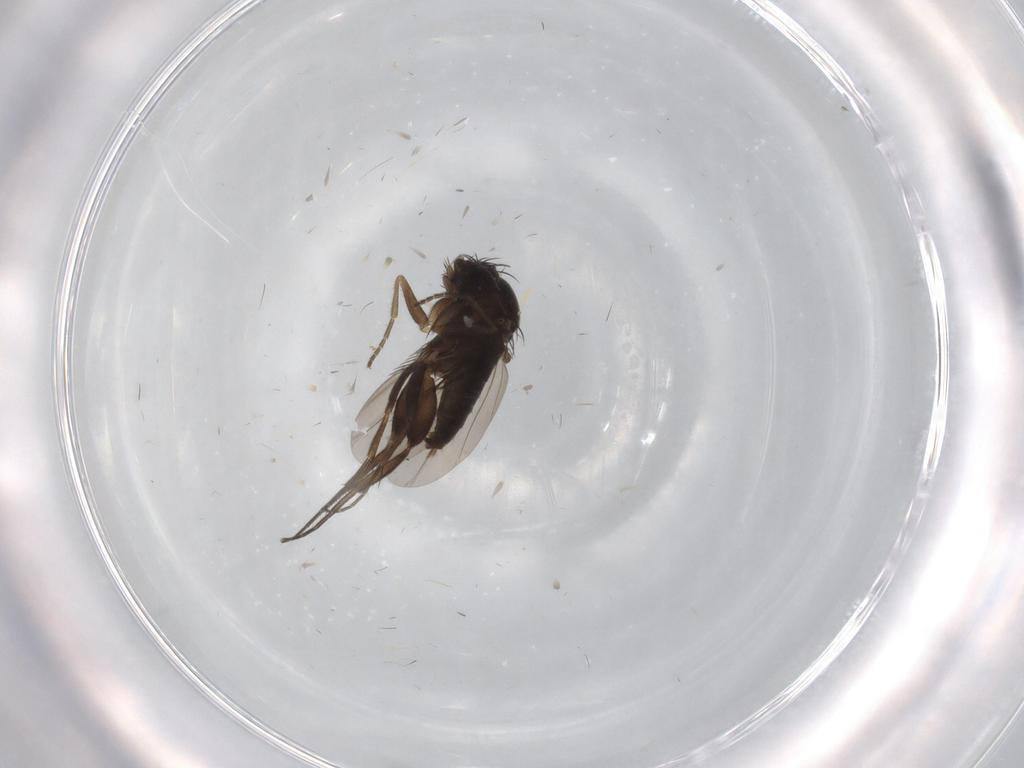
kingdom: Animalia
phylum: Arthropoda
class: Insecta
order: Diptera
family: Phoridae
